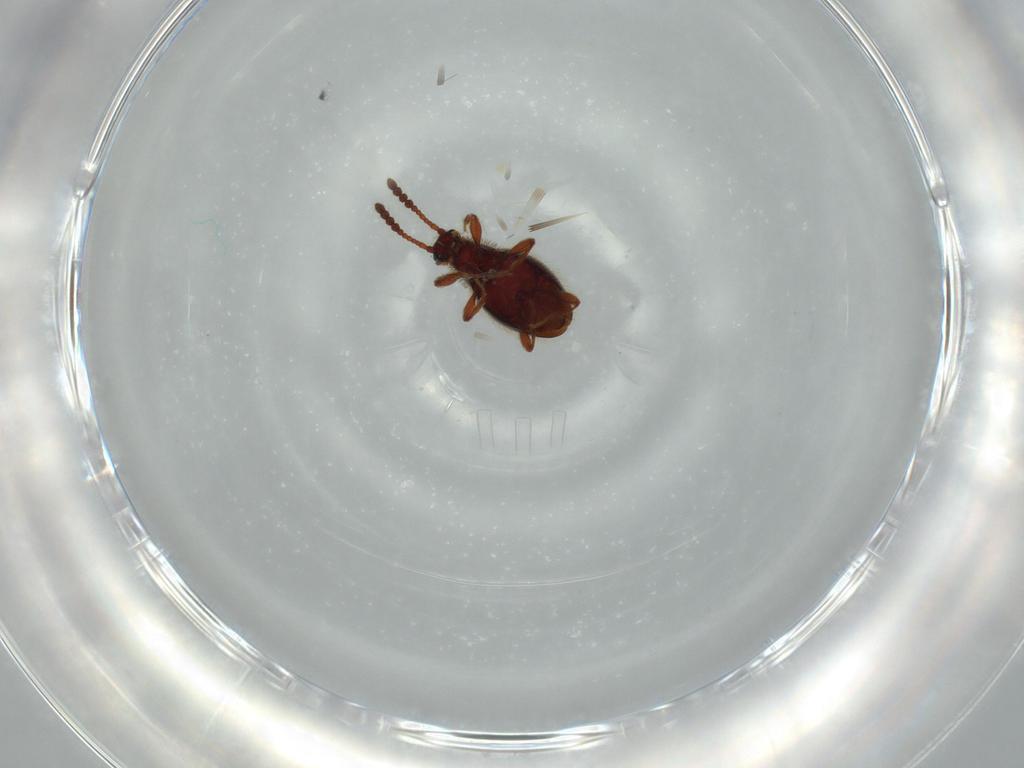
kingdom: Animalia
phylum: Arthropoda
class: Insecta
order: Coleoptera
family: Staphylinidae
